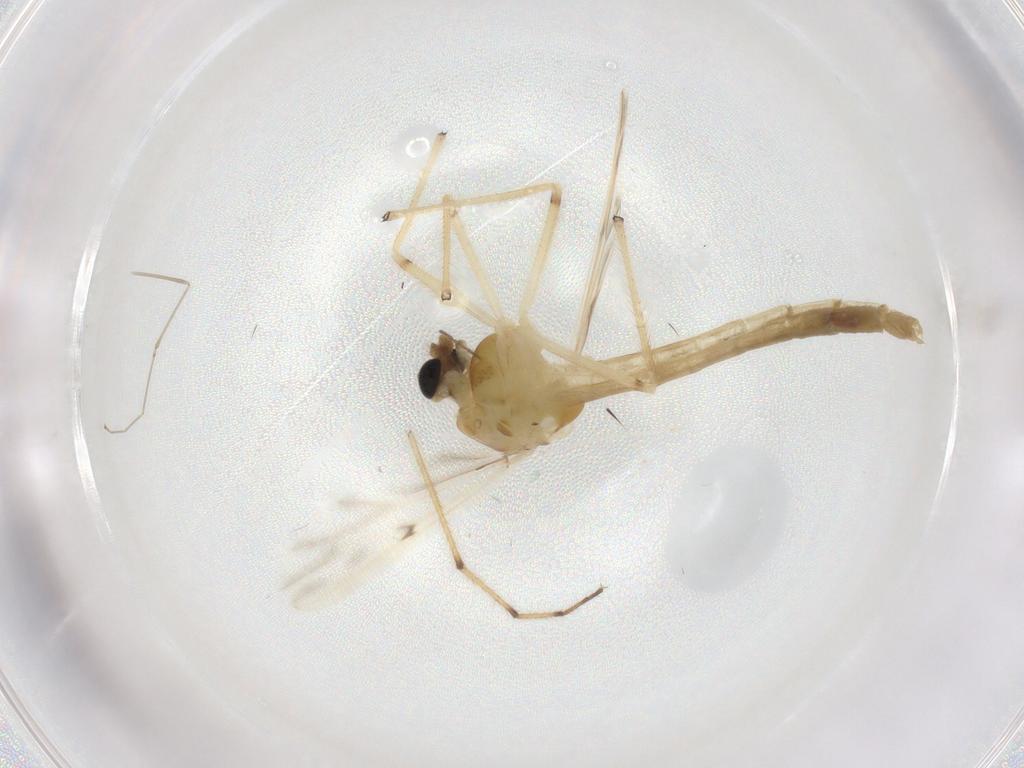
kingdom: Animalia
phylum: Arthropoda
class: Insecta
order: Diptera
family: Chironomidae
